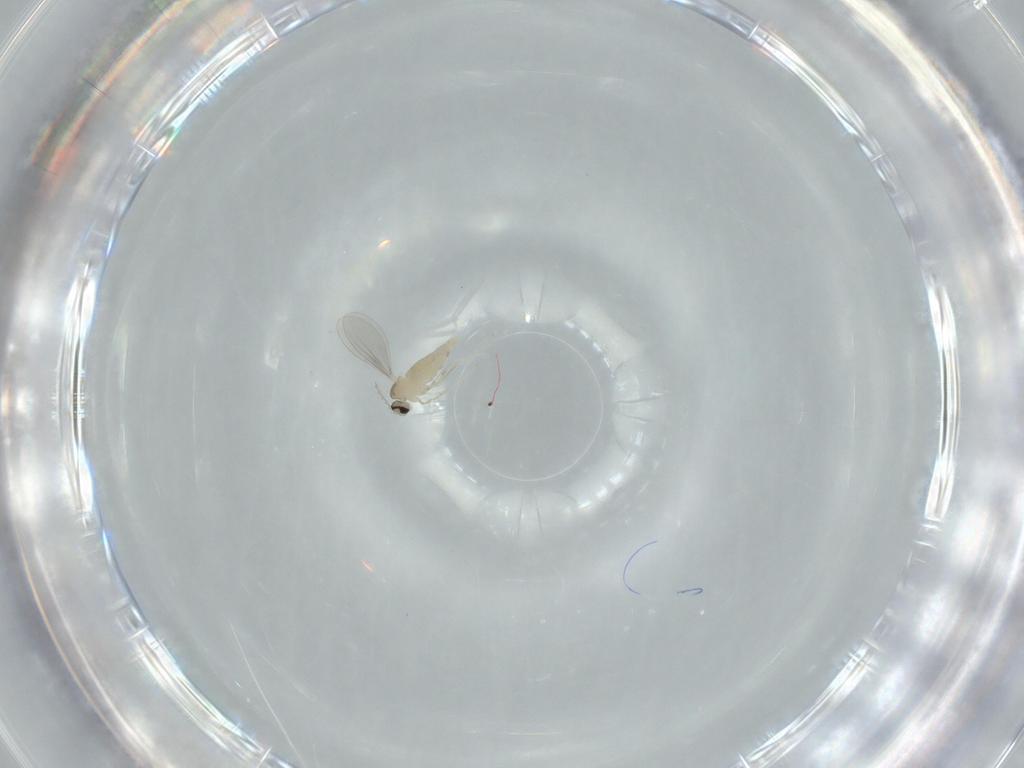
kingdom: Animalia
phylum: Arthropoda
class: Insecta
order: Diptera
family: Cecidomyiidae
